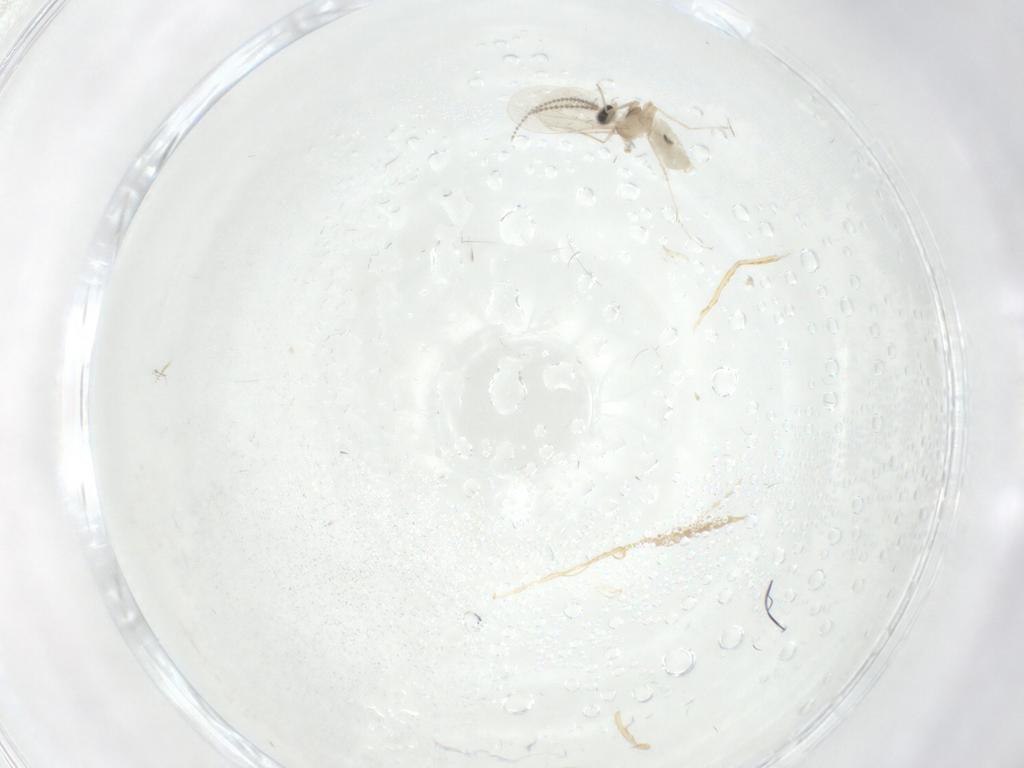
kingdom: Animalia
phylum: Arthropoda
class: Insecta
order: Diptera
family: Cecidomyiidae
